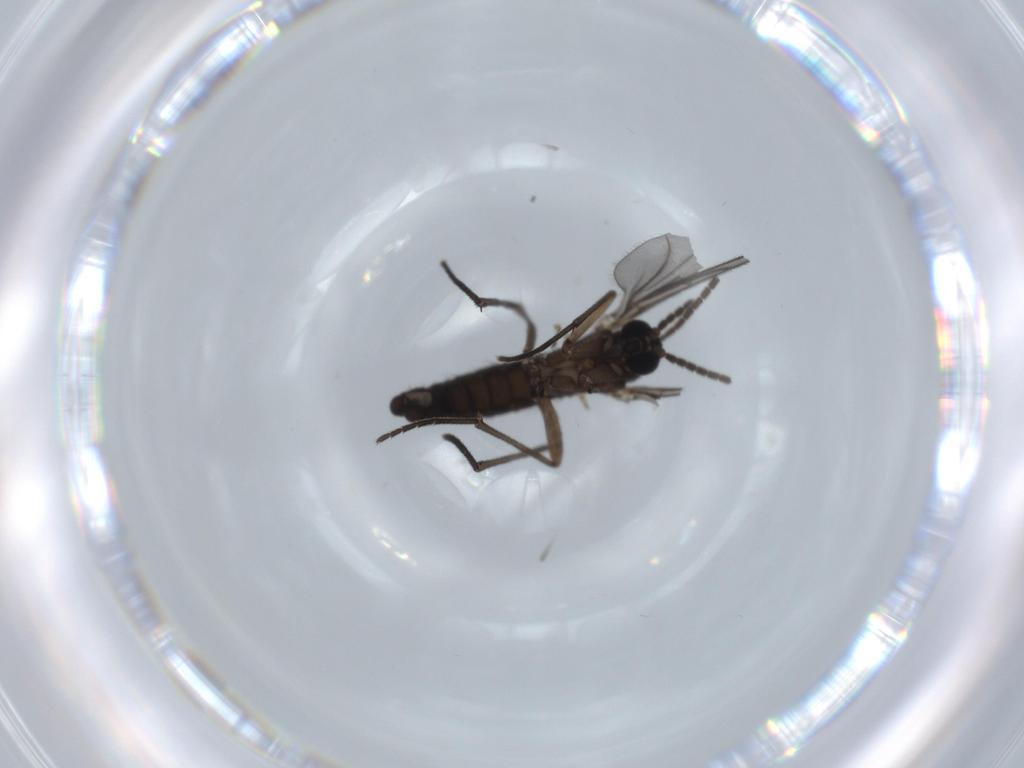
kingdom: Animalia
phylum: Arthropoda
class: Insecta
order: Diptera
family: Sciaridae
